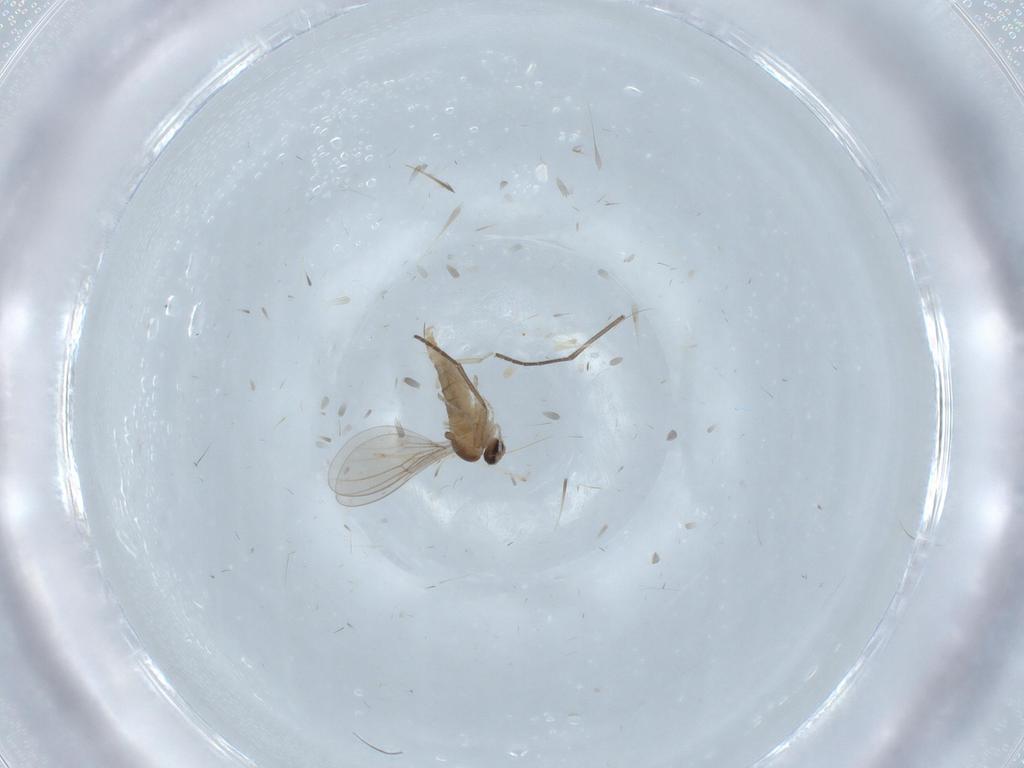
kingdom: Animalia
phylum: Arthropoda
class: Insecta
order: Diptera
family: Cecidomyiidae
